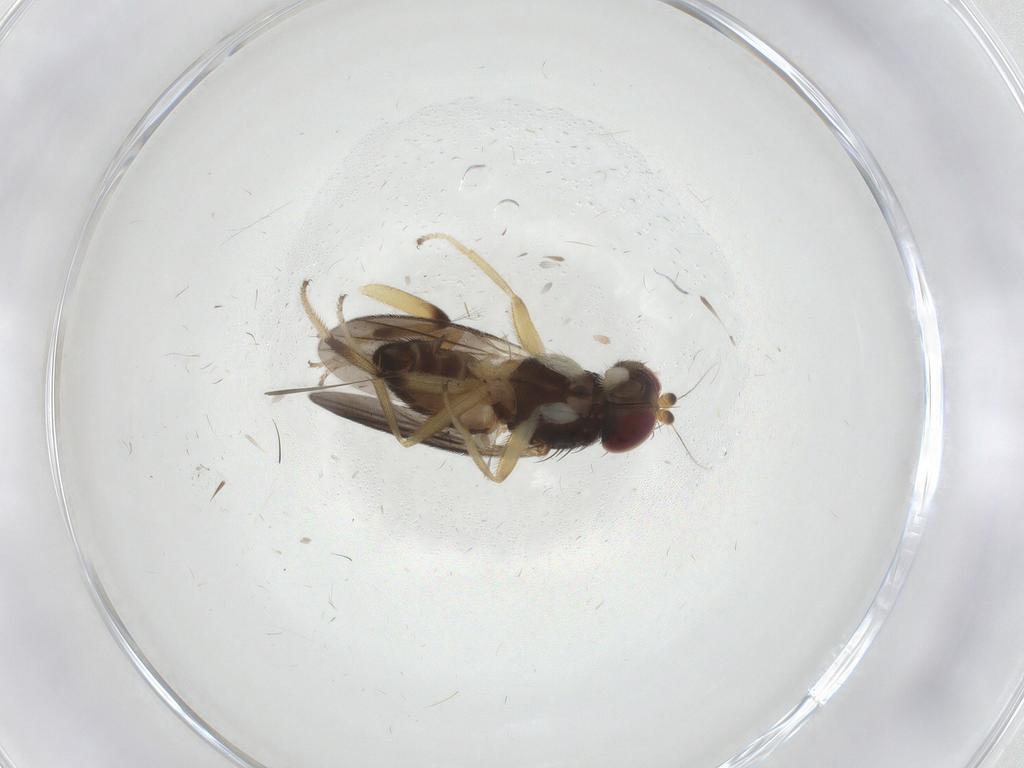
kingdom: Animalia
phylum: Arthropoda
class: Insecta
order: Diptera
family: Clusiidae
